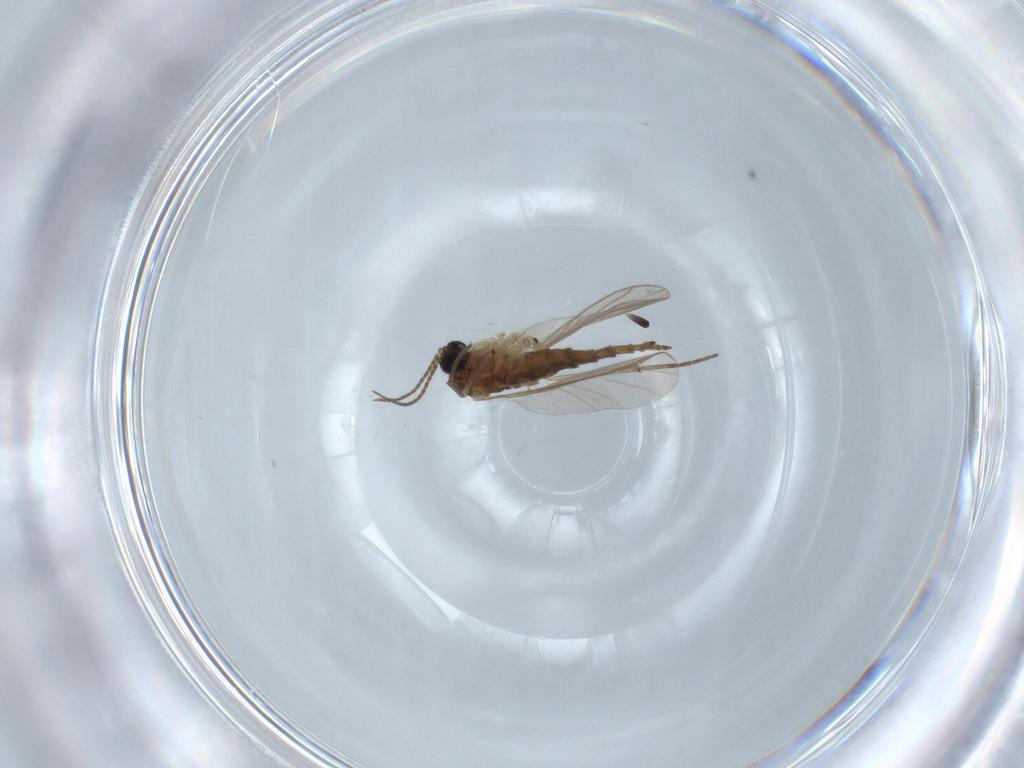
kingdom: Animalia
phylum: Arthropoda
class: Insecta
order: Diptera
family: Sciaridae
